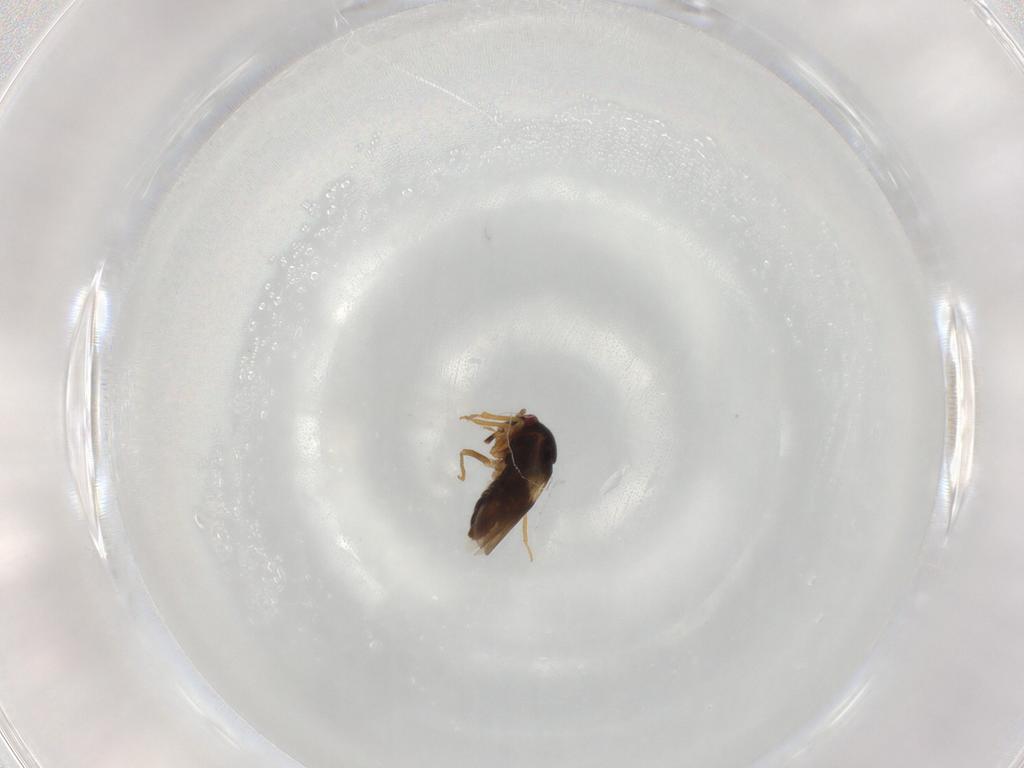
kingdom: Animalia
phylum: Arthropoda
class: Insecta
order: Hemiptera
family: Schizopteridae
